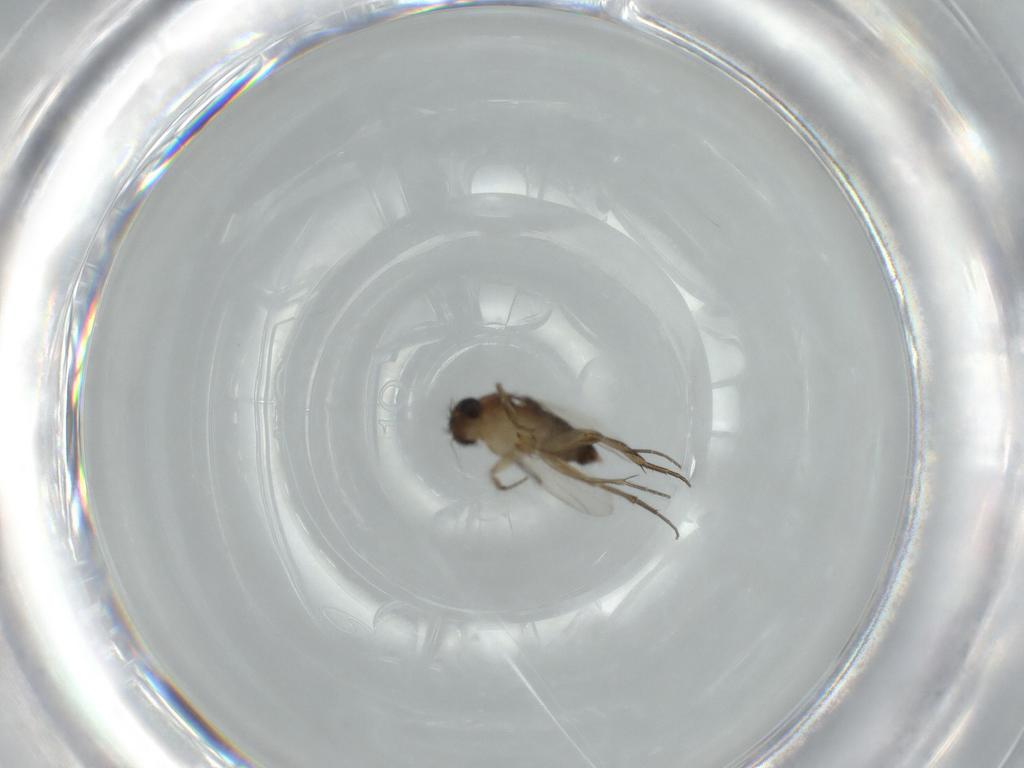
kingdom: Animalia
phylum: Arthropoda
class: Insecta
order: Diptera
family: Phoridae
